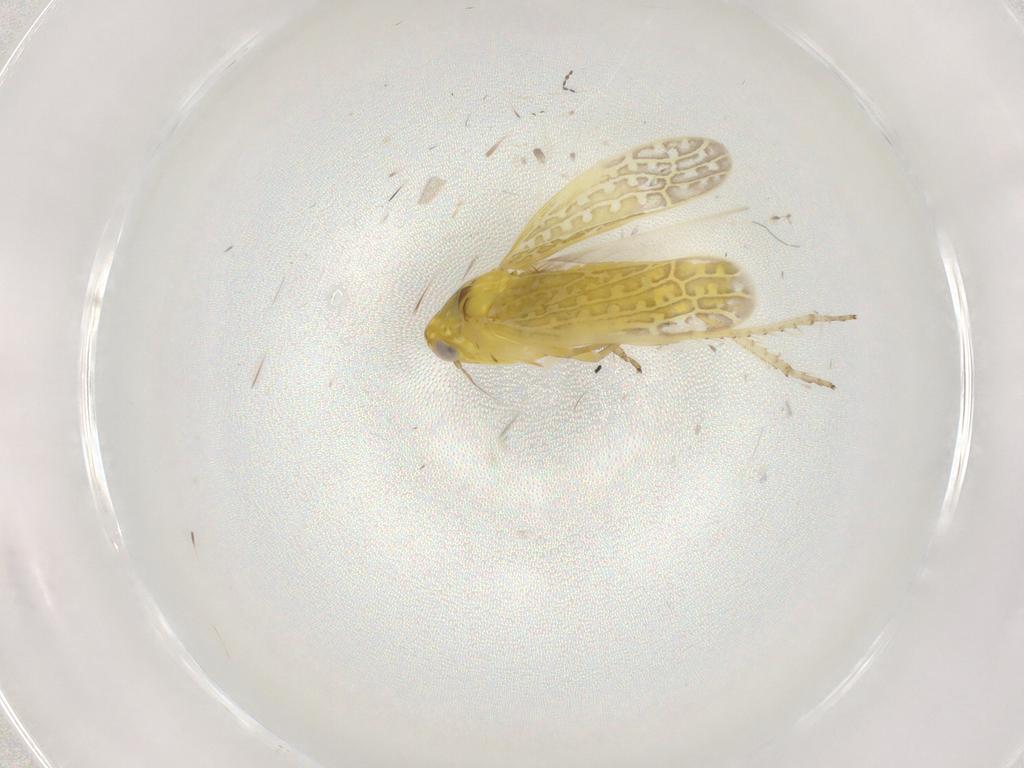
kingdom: Animalia
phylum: Arthropoda
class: Insecta
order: Hemiptera
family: Cicadellidae
